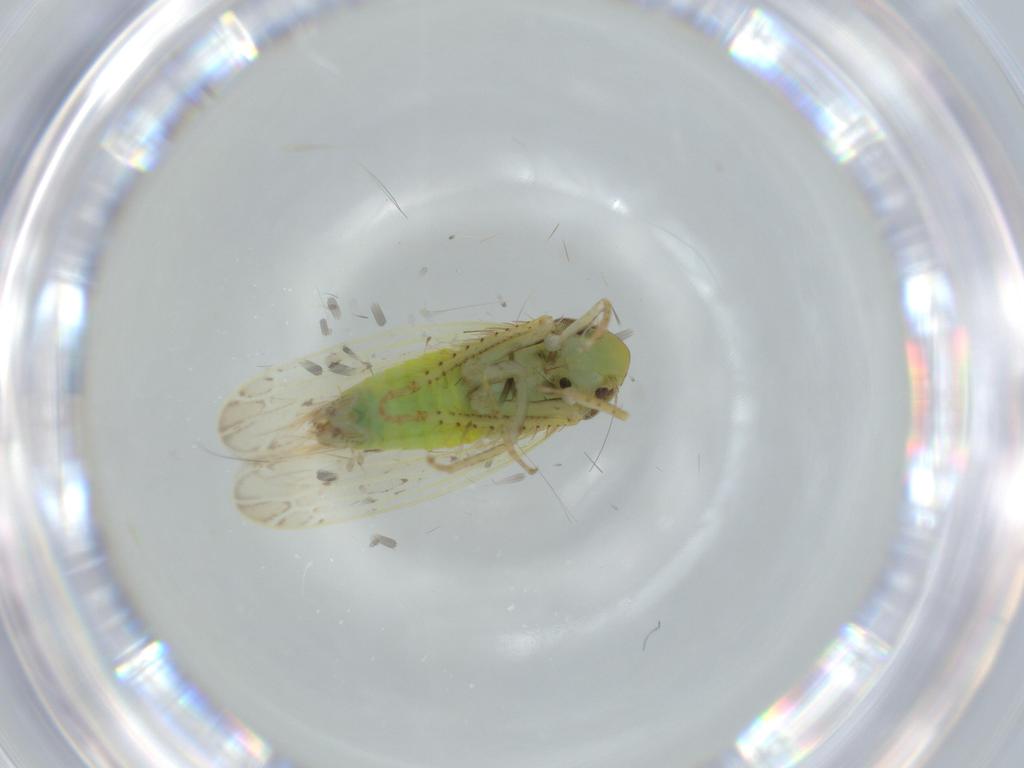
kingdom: Animalia
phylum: Arthropoda
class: Insecta
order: Hemiptera
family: Cicadellidae
